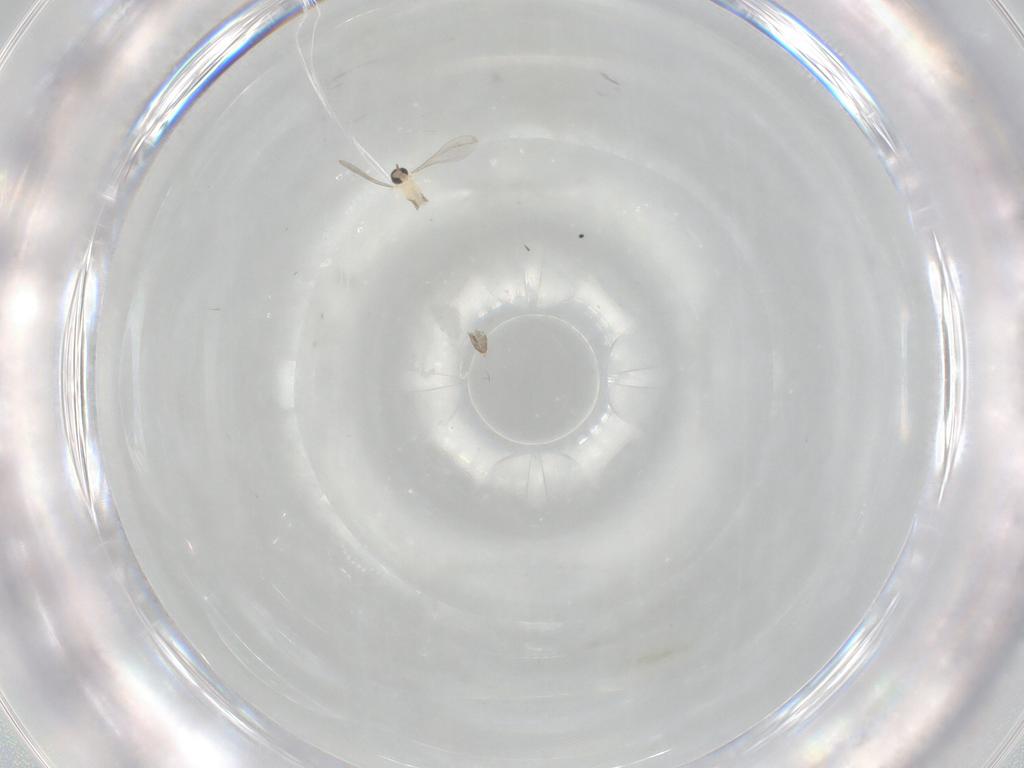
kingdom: Animalia
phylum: Arthropoda
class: Insecta
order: Diptera
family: Cecidomyiidae
